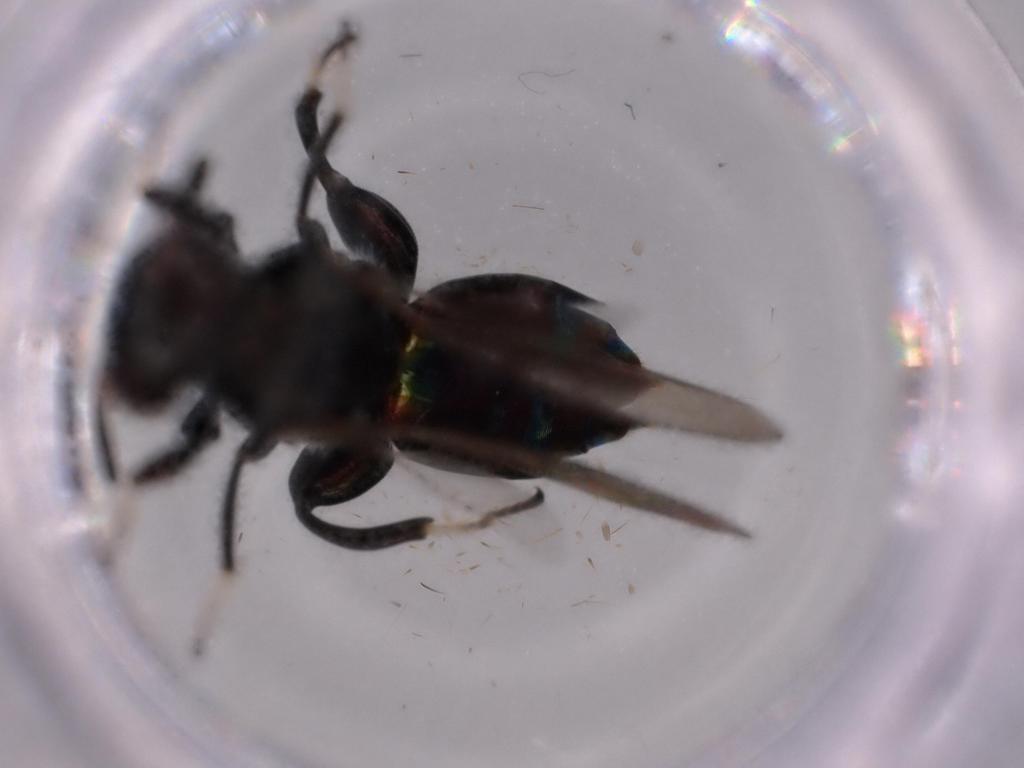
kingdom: Animalia
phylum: Arthropoda
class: Insecta
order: Hymenoptera
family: Scelionidae
